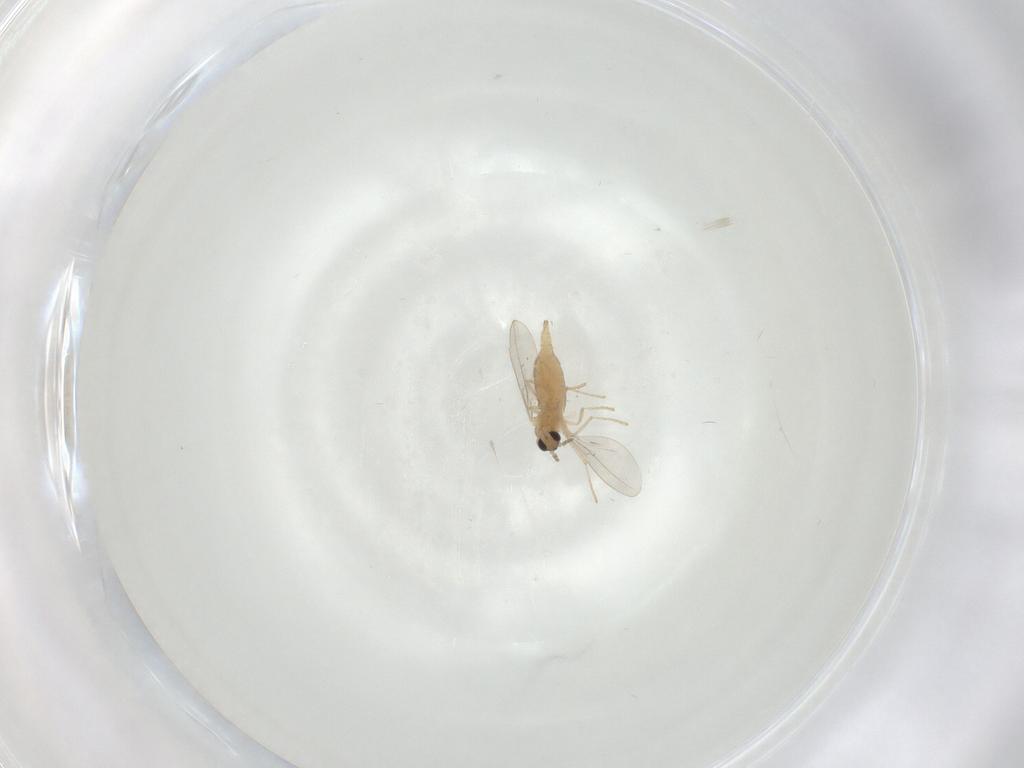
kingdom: Animalia
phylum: Arthropoda
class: Insecta
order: Diptera
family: Cecidomyiidae
